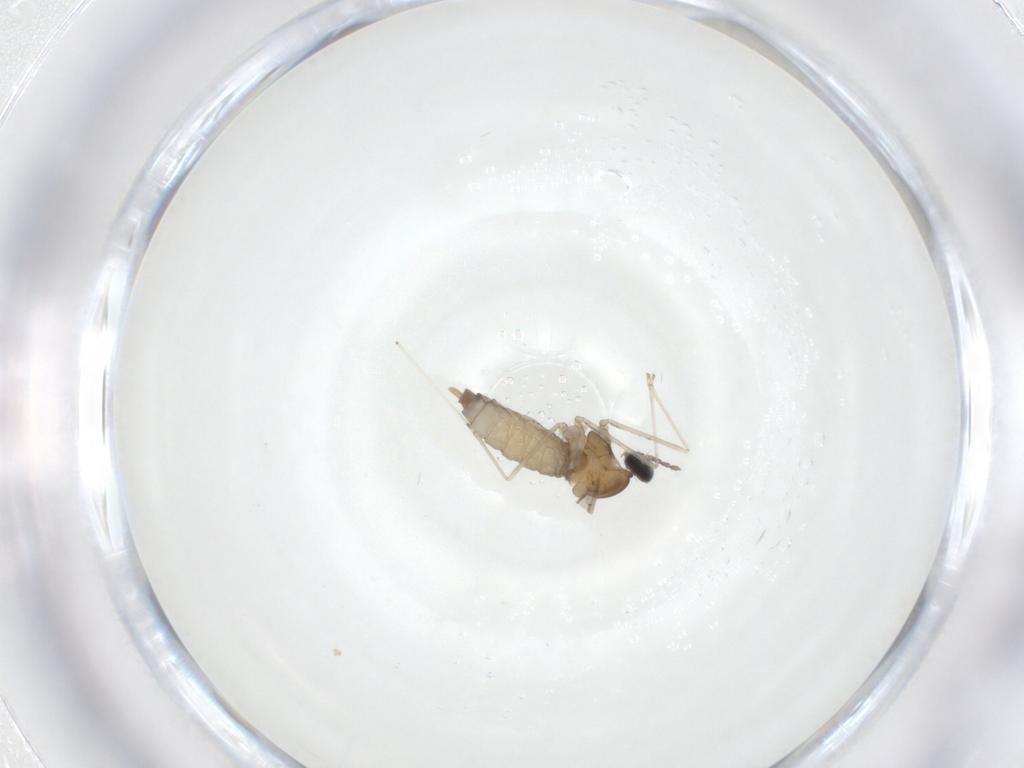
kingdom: Animalia
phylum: Arthropoda
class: Insecta
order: Diptera
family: Cecidomyiidae
